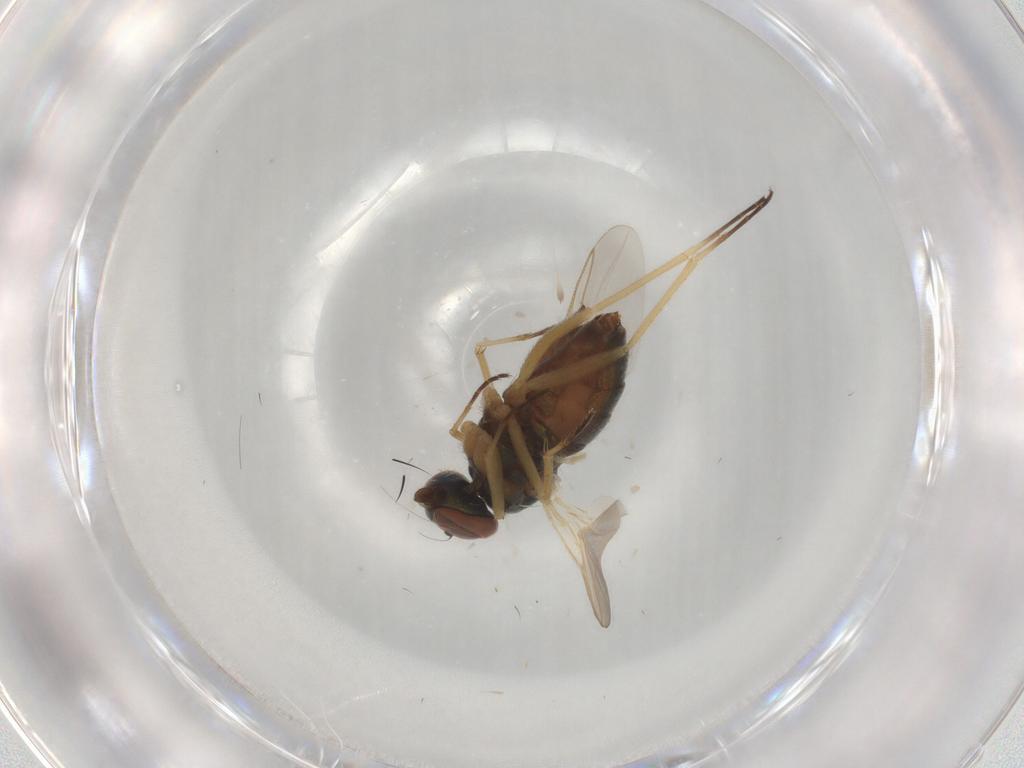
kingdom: Animalia
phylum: Arthropoda
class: Insecta
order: Diptera
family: Dolichopodidae
